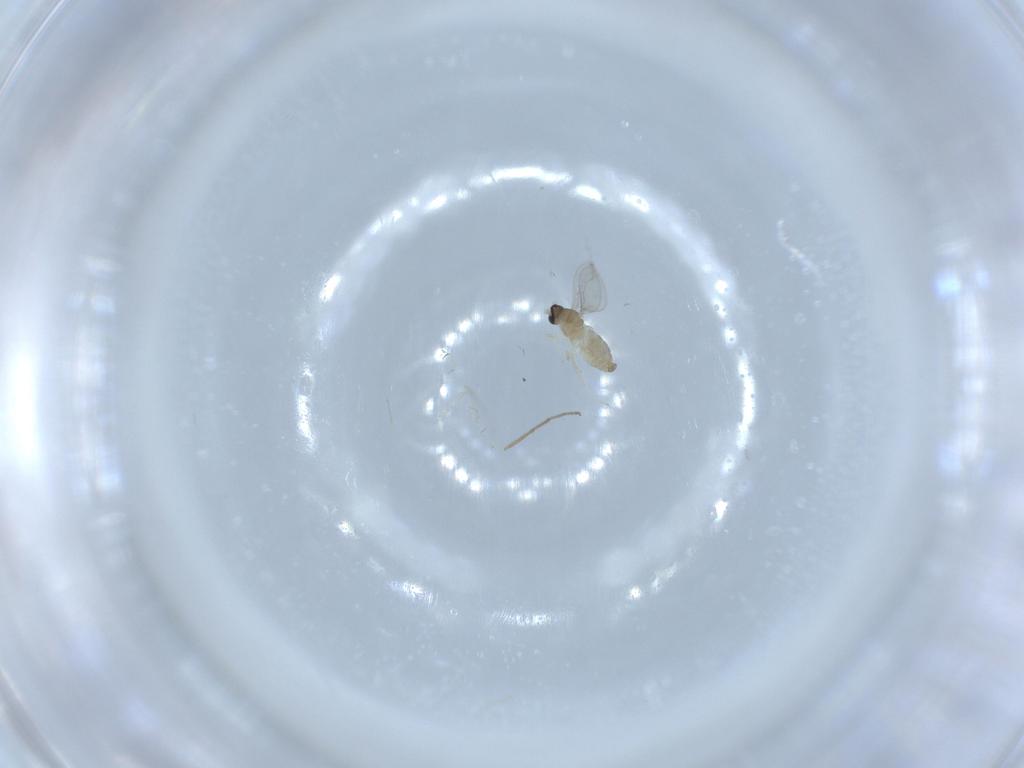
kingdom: Animalia
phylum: Arthropoda
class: Insecta
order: Diptera
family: Cecidomyiidae
